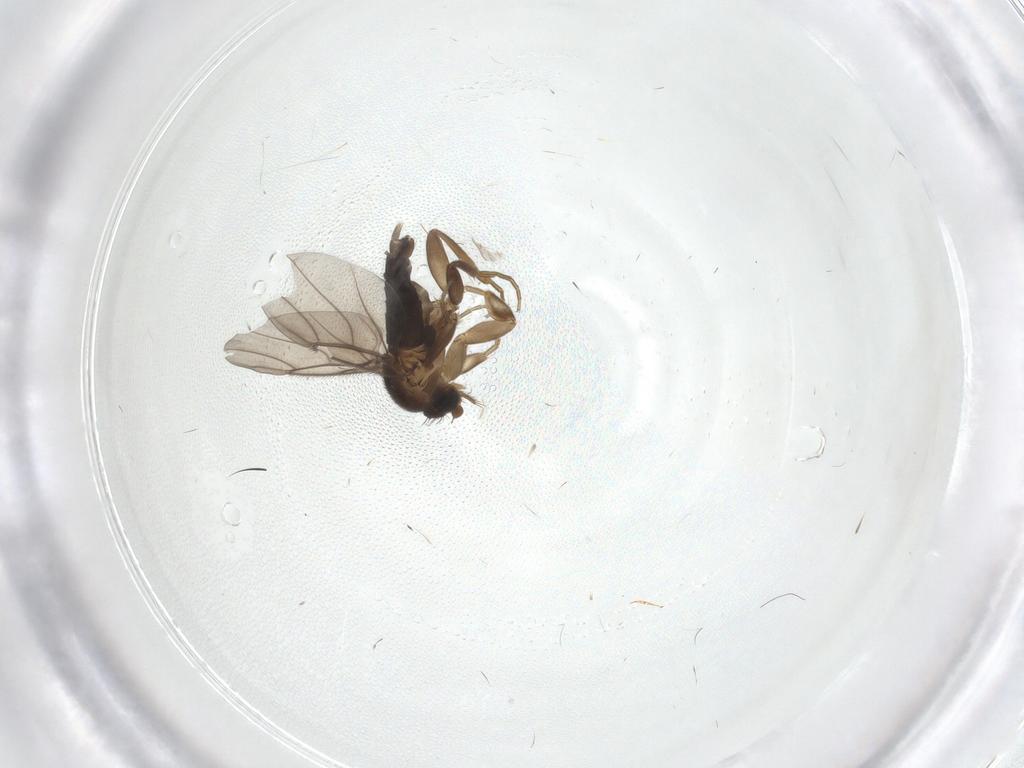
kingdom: Animalia
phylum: Arthropoda
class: Insecta
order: Diptera
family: Phoridae
